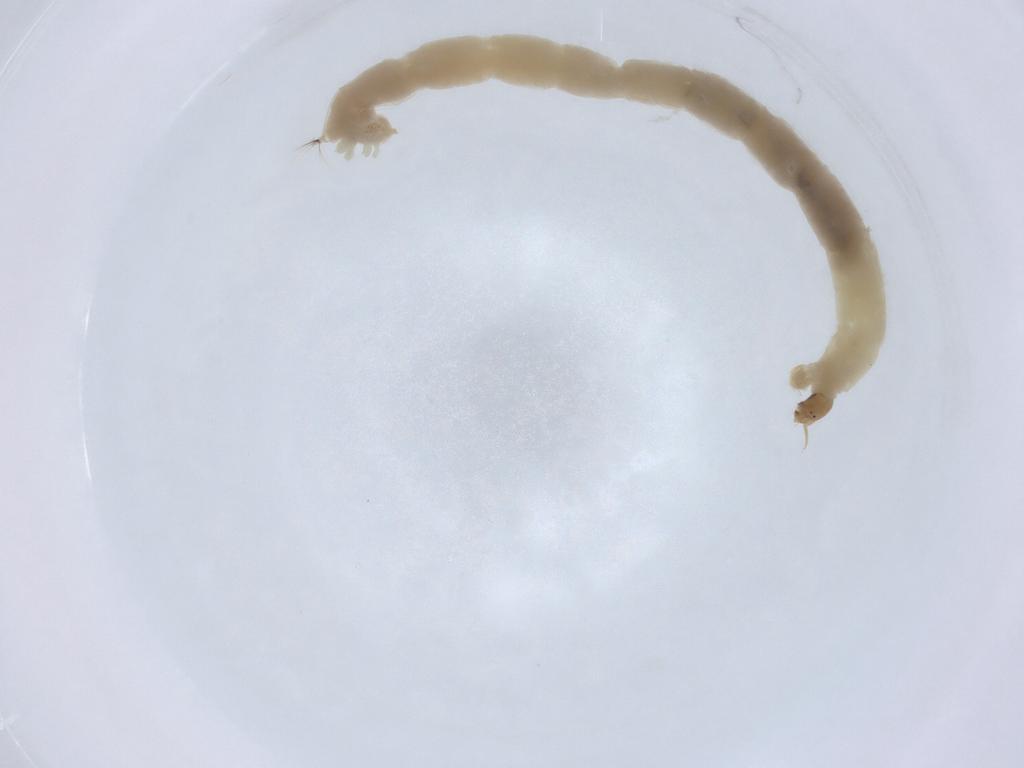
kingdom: Animalia
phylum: Arthropoda
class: Insecta
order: Diptera
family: Chironomidae
